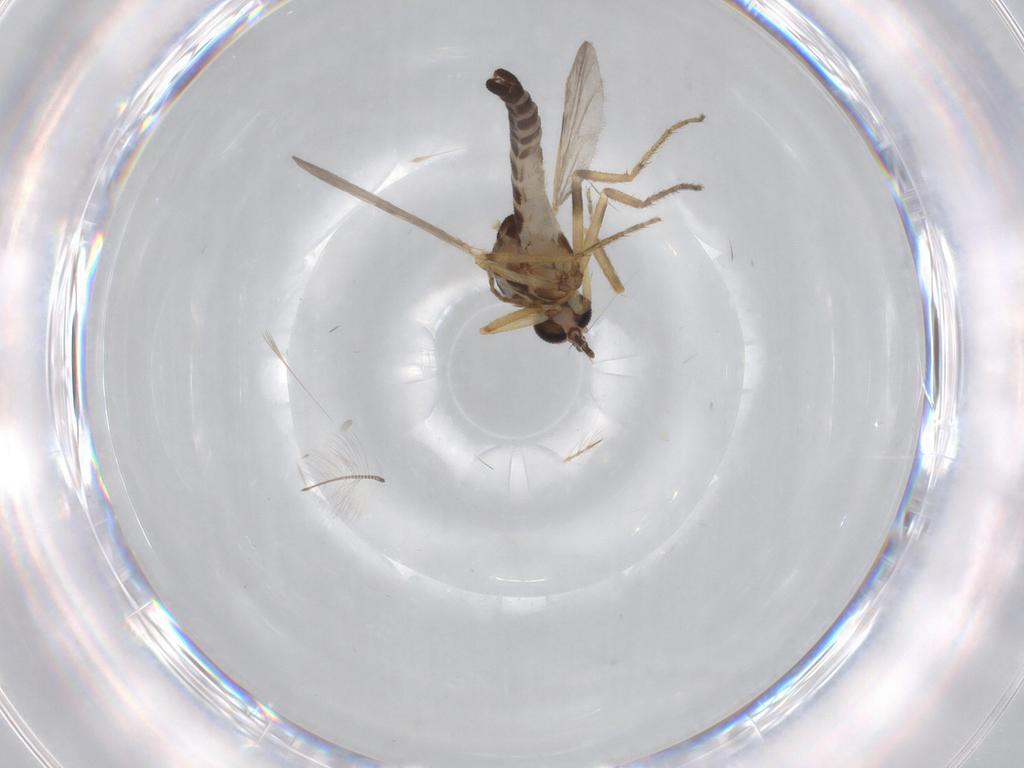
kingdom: Animalia
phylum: Arthropoda
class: Insecta
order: Diptera
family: Ceratopogonidae
